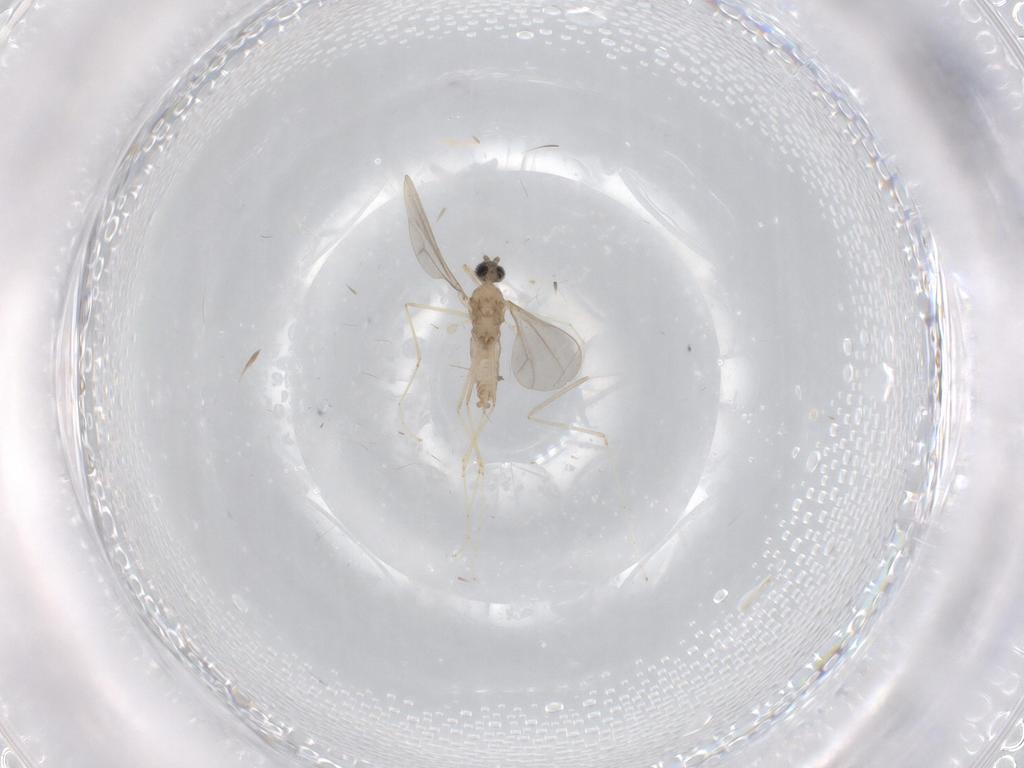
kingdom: Animalia
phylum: Arthropoda
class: Insecta
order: Diptera
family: Cecidomyiidae
